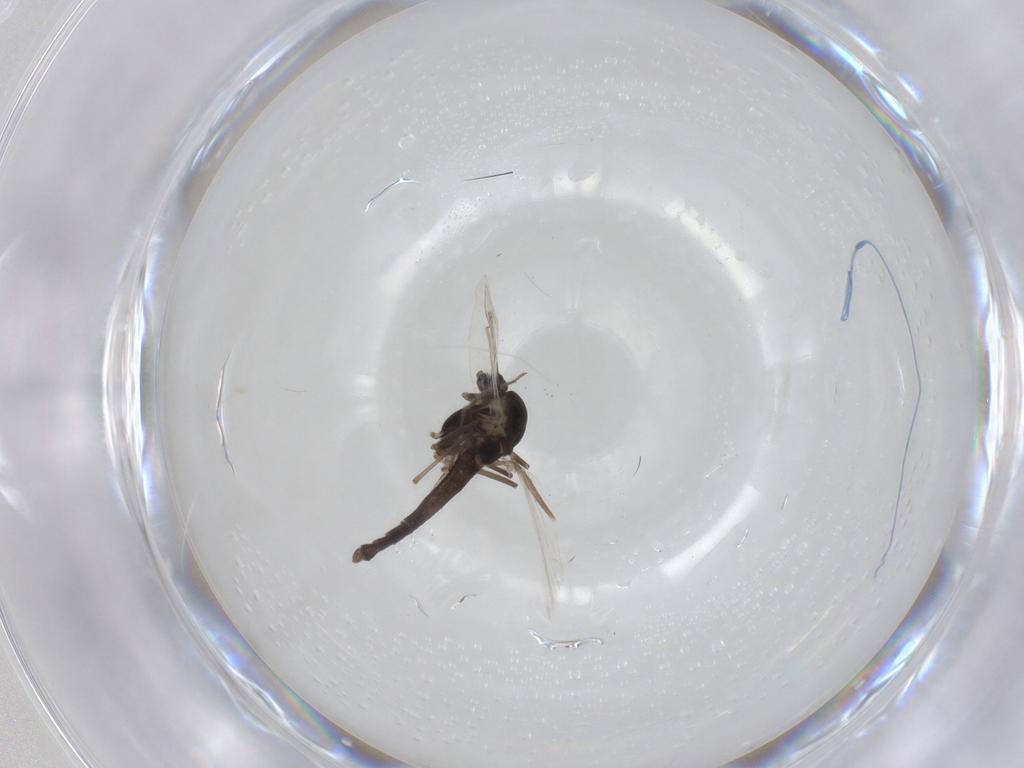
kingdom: Animalia
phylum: Arthropoda
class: Insecta
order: Diptera
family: Chironomidae
